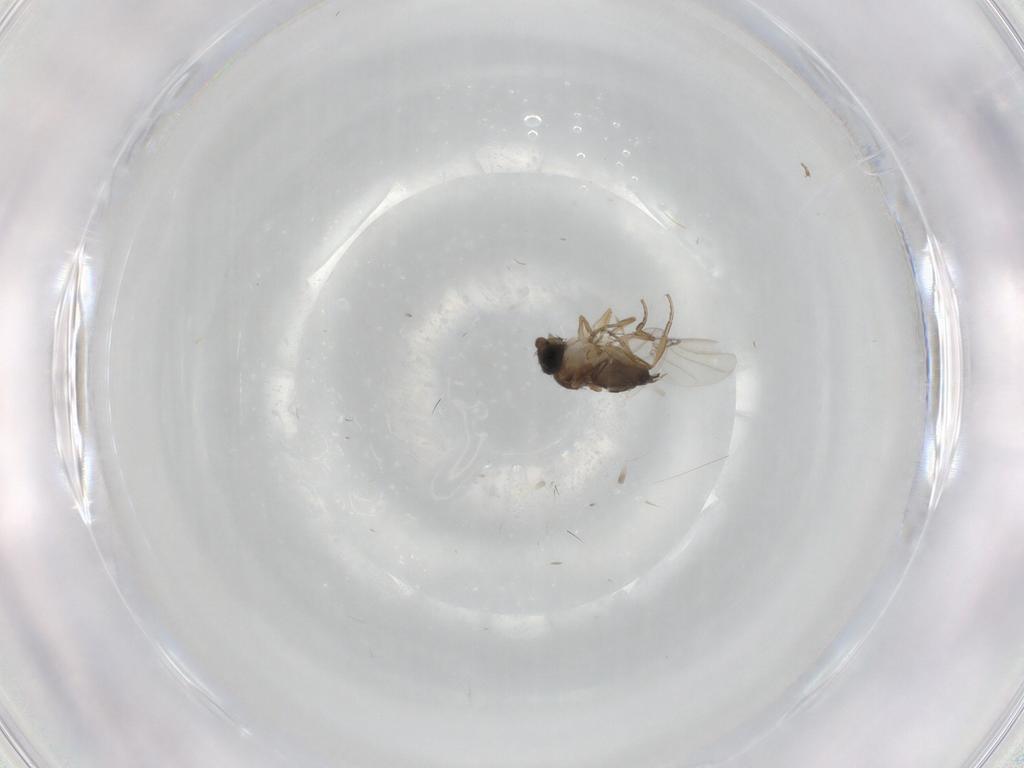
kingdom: Animalia
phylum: Arthropoda
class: Insecta
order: Diptera
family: Phoridae
